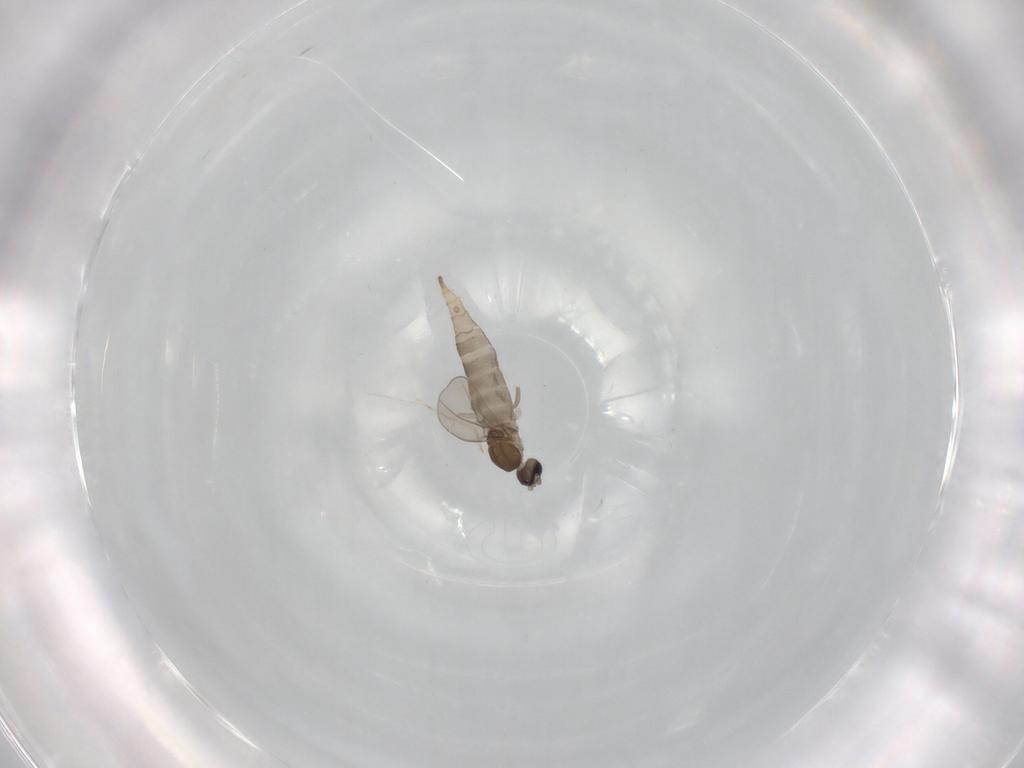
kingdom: Animalia
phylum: Arthropoda
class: Insecta
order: Diptera
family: Cecidomyiidae
